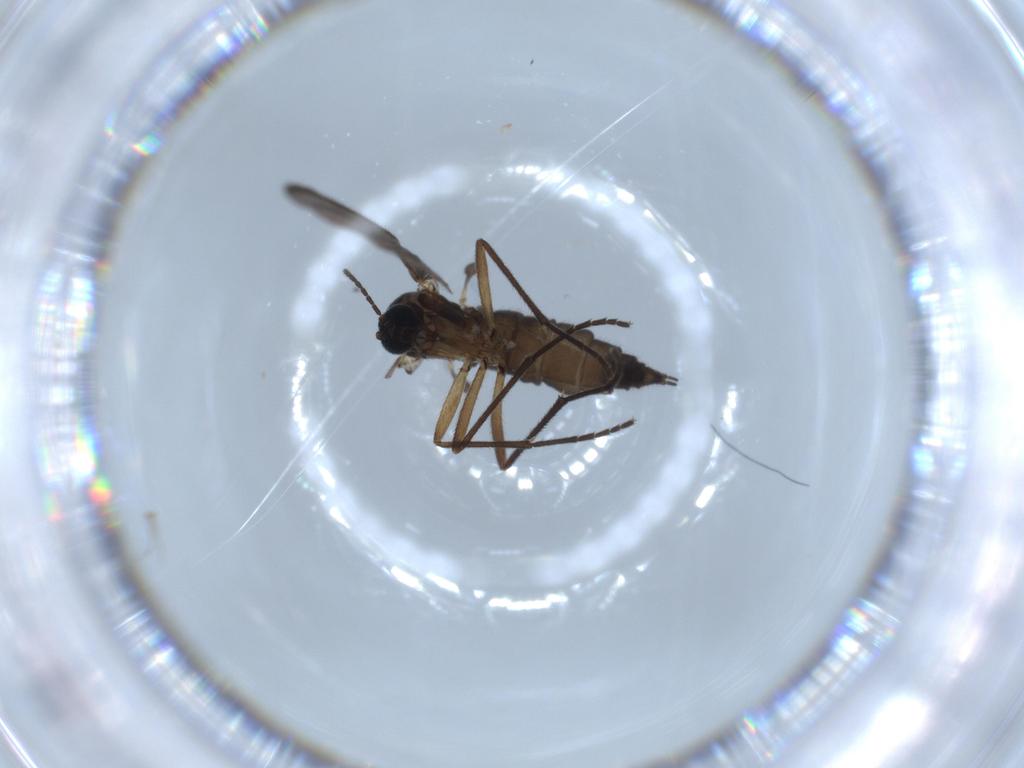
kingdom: Animalia
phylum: Arthropoda
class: Insecta
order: Diptera
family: Sciaridae
